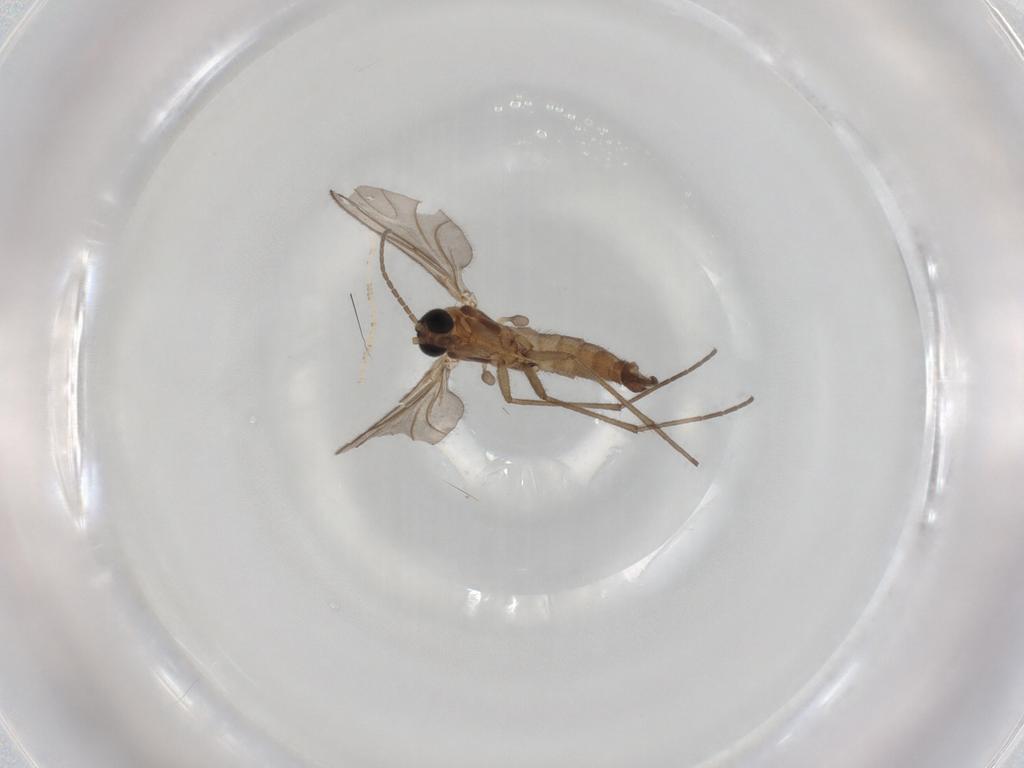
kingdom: Animalia
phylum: Arthropoda
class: Insecta
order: Diptera
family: Sciaridae
